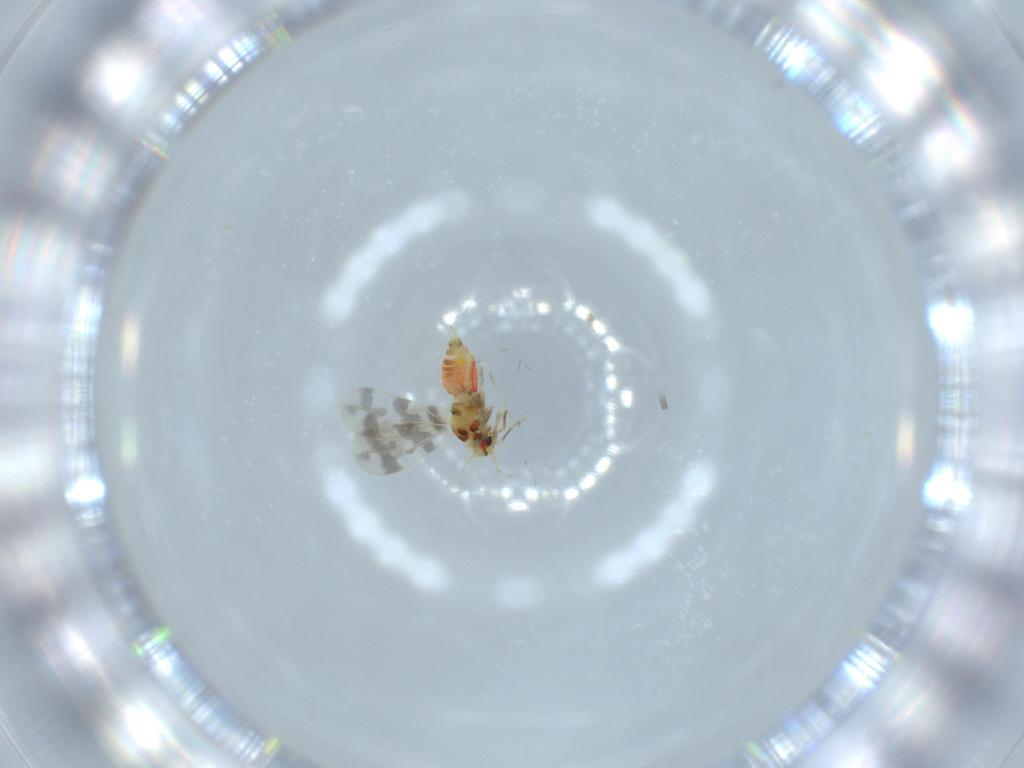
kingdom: Animalia
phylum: Arthropoda
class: Insecta
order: Hemiptera
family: Aleyrodidae
